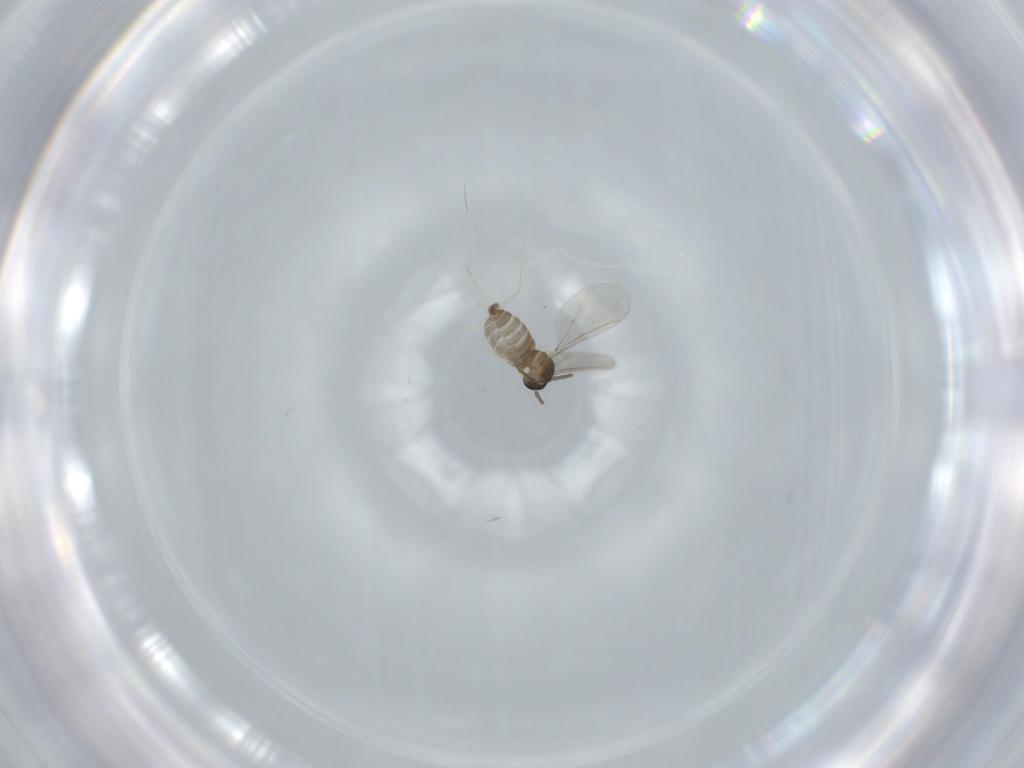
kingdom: Animalia
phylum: Arthropoda
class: Insecta
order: Diptera
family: Cecidomyiidae
